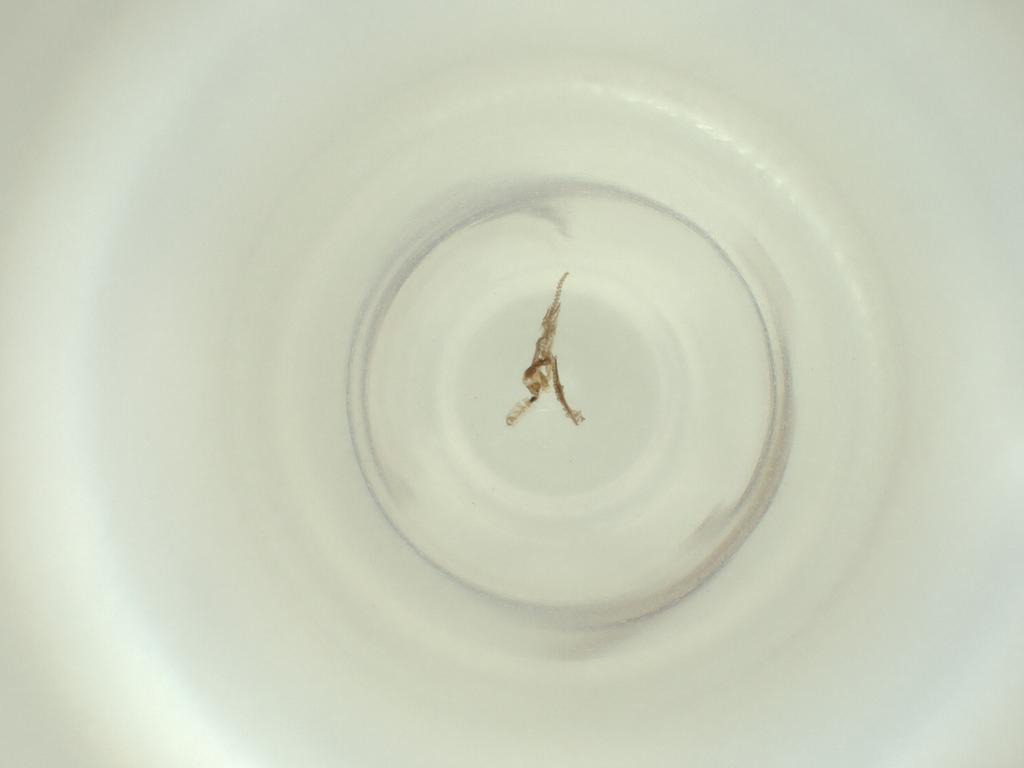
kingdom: Animalia
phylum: Arthropoda
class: Insecta
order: Diptera
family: Cecidomyiidae
